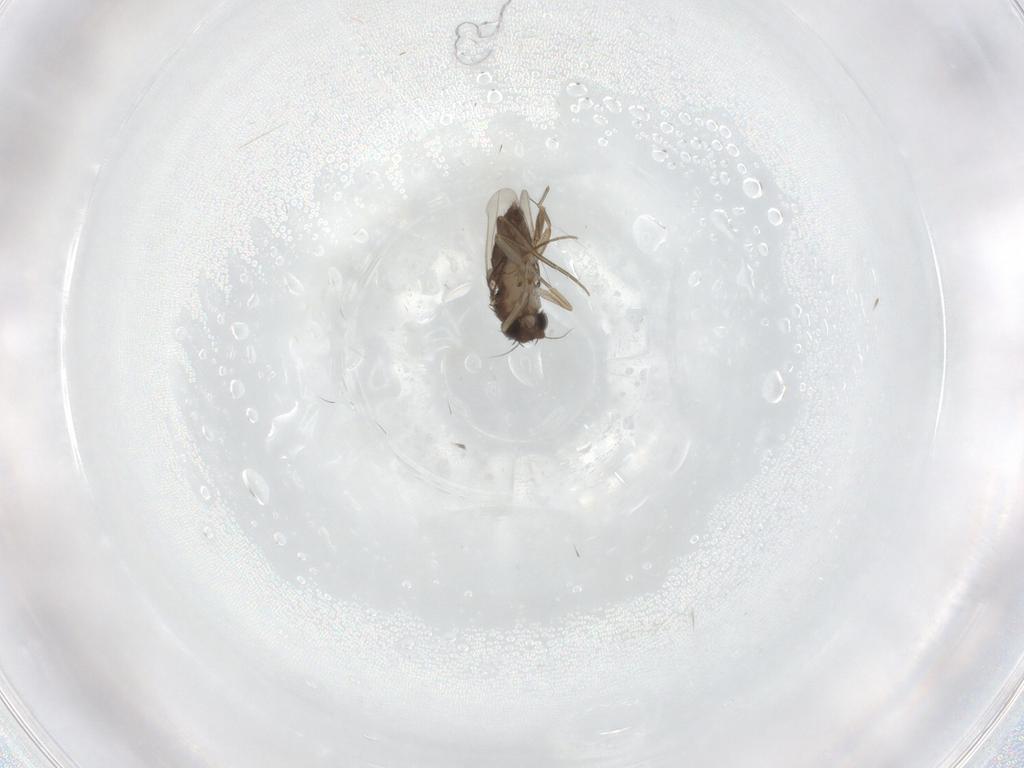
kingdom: Animalia
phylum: Arthropoda
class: Insecta
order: Diptera
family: Phoridae
